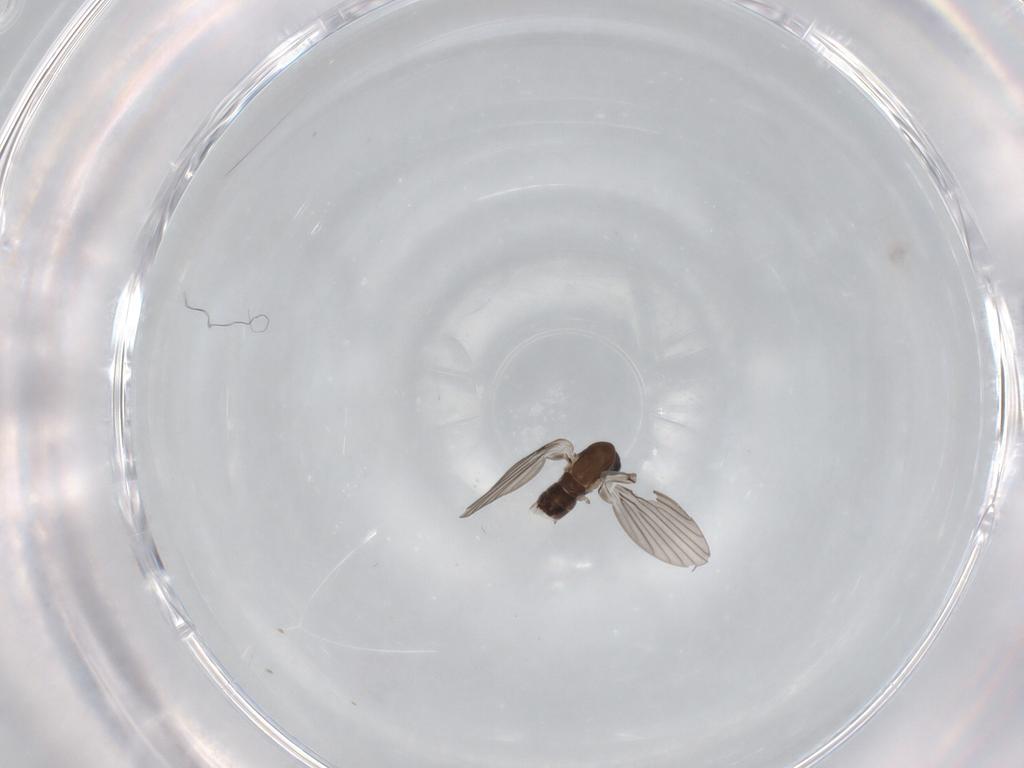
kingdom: Animalia
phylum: Arthropoda
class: Insecta
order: Diptera
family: Psychodidae
